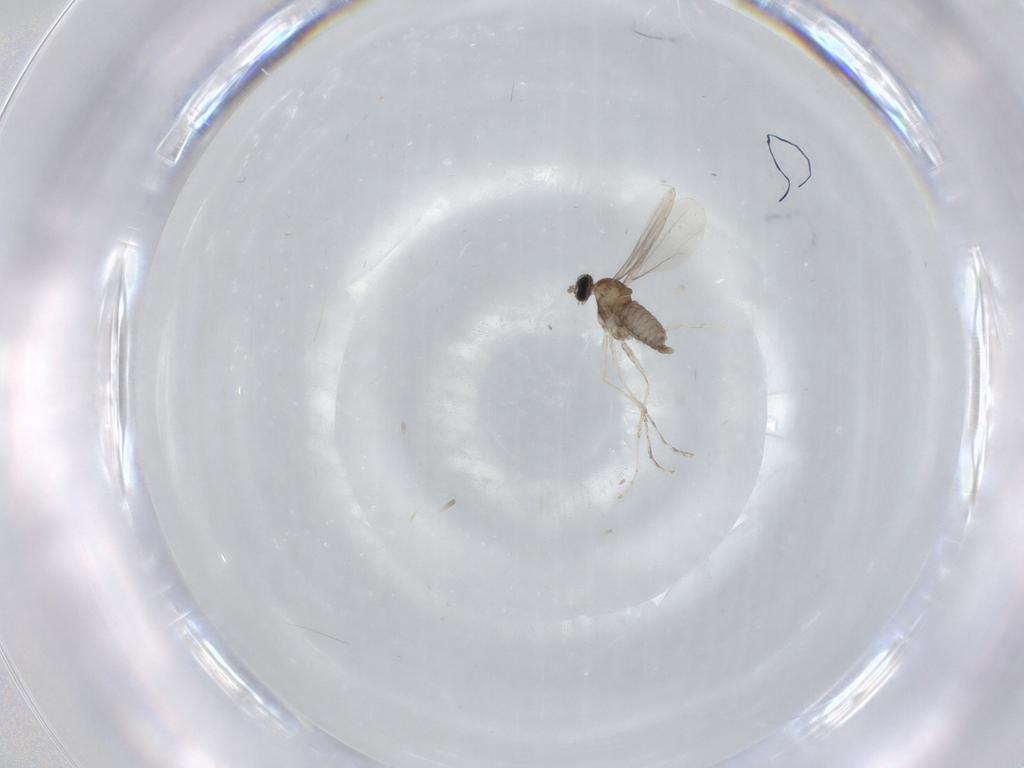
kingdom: Animalia
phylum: Arthropoda
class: Insecta
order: Diptera
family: Cecidomyiidae
